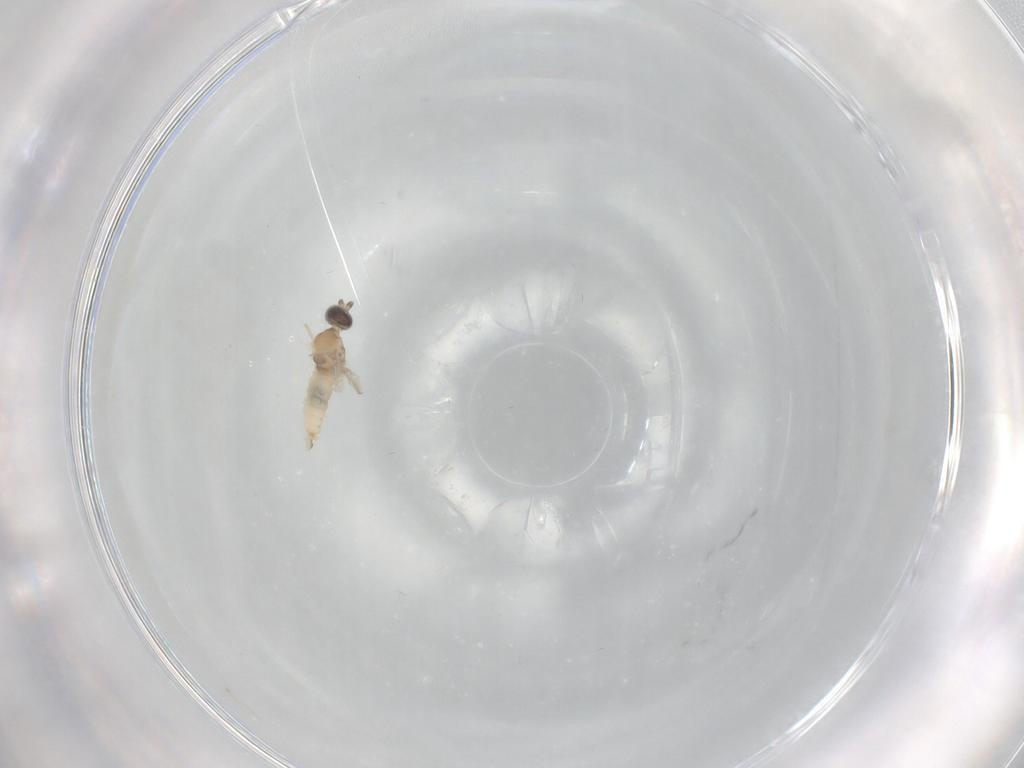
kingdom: Animalia
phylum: Arthropoda
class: Insecta
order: Diptera
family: Cecidomyiidae
